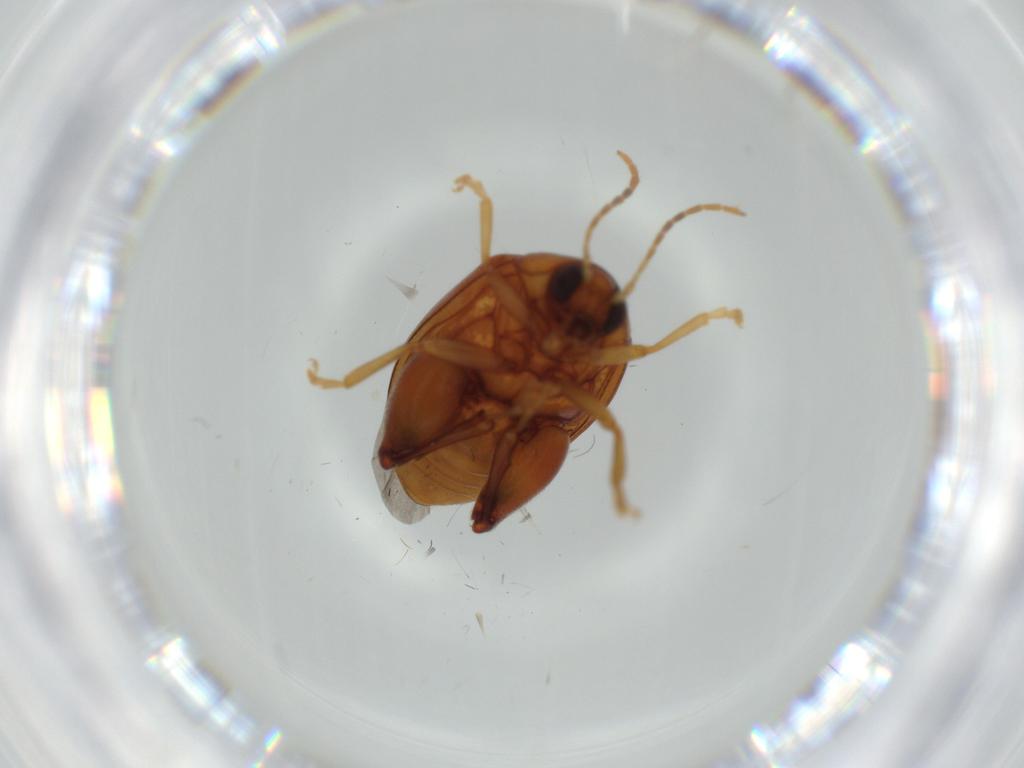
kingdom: Animalia
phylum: Arthropoda
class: Insecta
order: Coleoptera
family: Chrysomelidae
